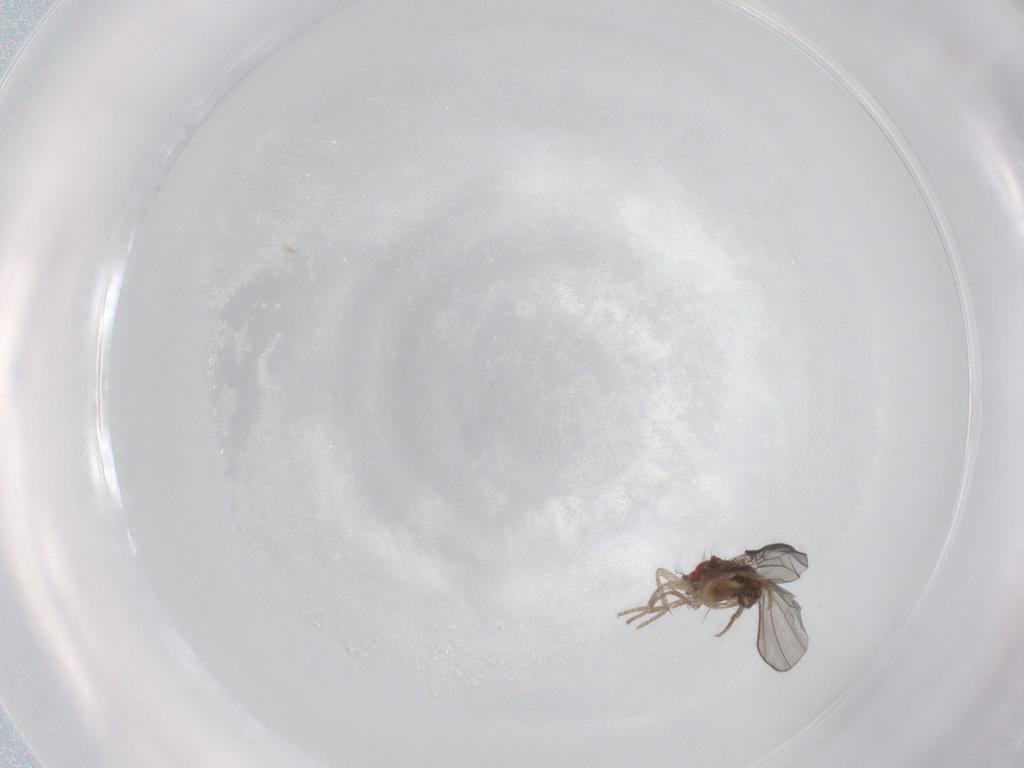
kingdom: Animalia
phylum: Arthropoda
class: Insecta
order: Diptera
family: Drosophilidae
